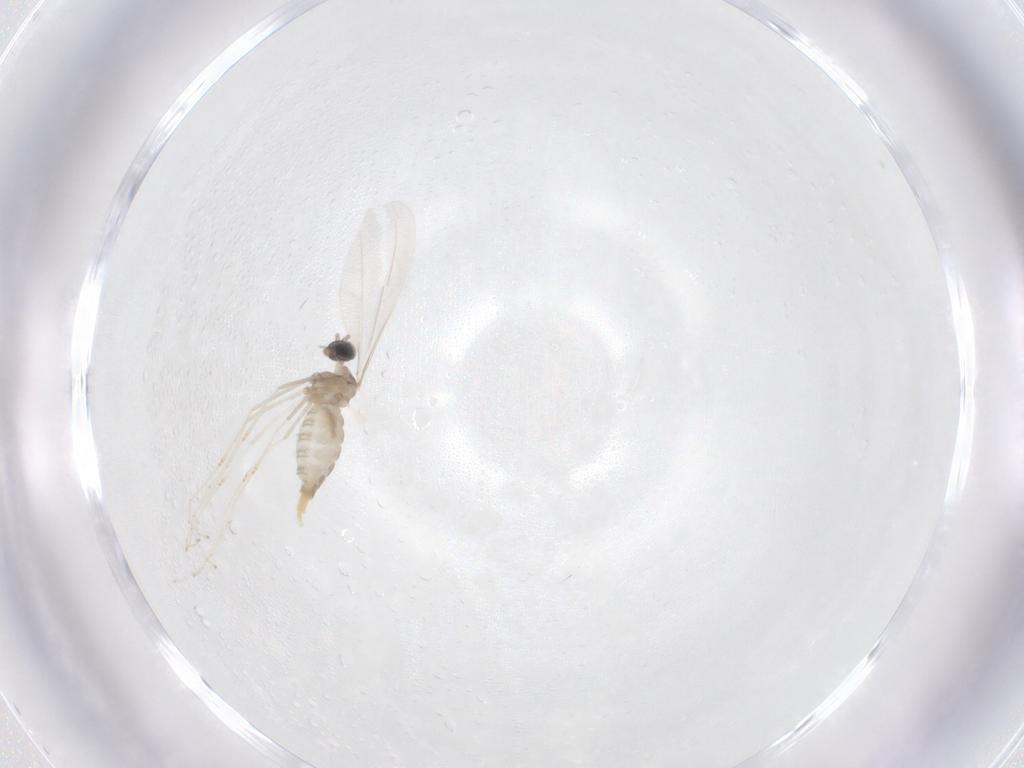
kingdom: Animalia
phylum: Arthropoda
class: Insecta
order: Diptera
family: Cecidomyiidae
